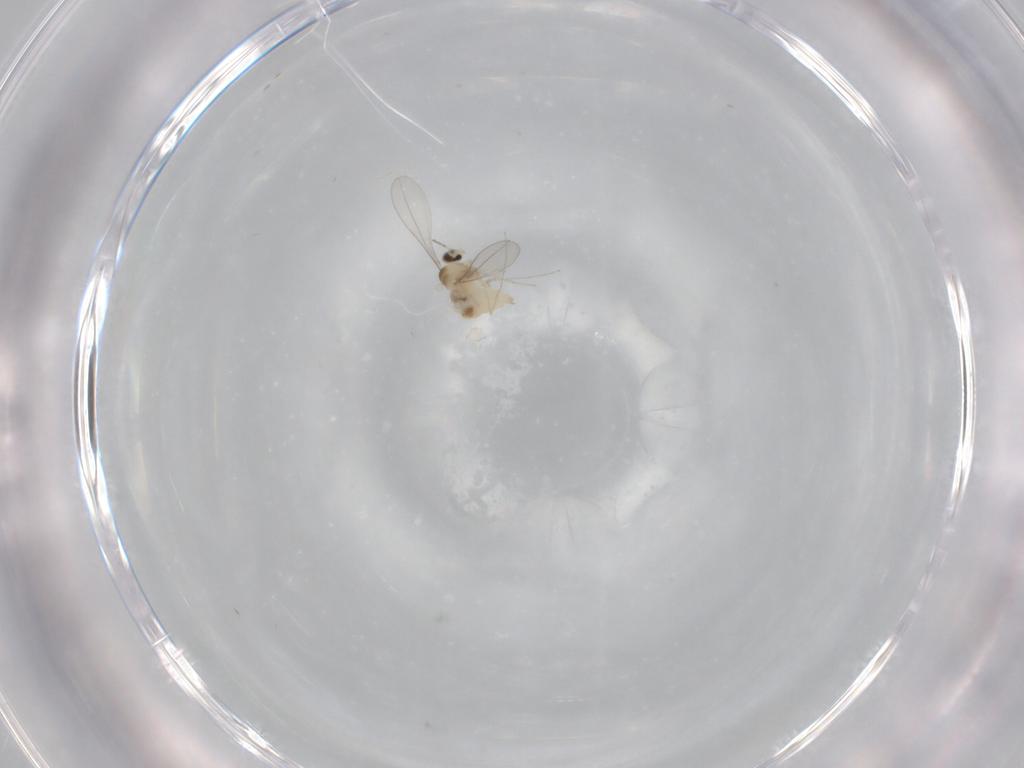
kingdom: Animalia
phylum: Arthropoda
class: Insecta
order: Diptera
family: Cecidomyiidae
